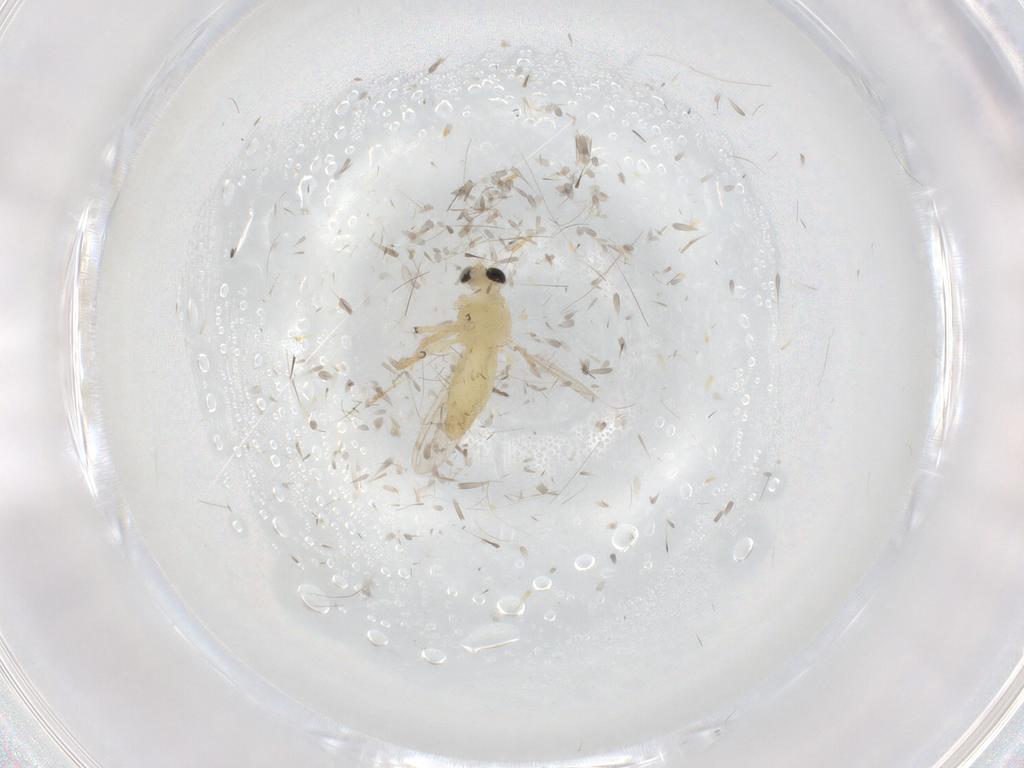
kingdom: Animalia
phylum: Arthropoda
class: Insecta
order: Diptera
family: Chironomidae
